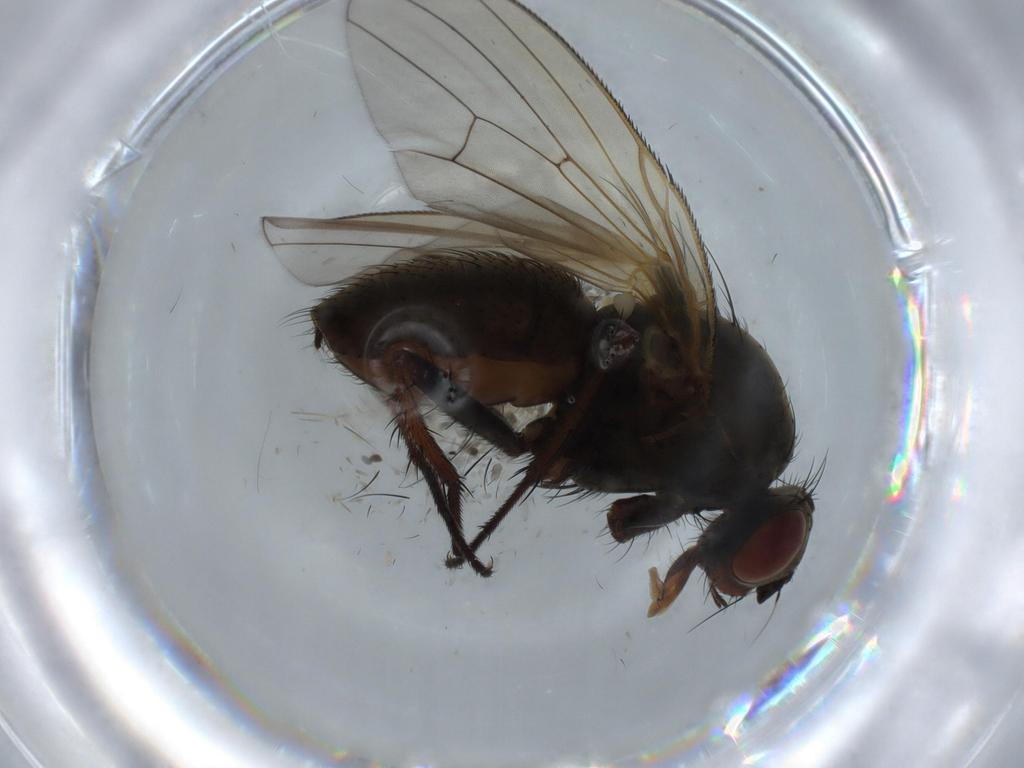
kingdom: Animalia
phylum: Arthropoda
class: Insecta
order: Diptera
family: Anthomyiidae
